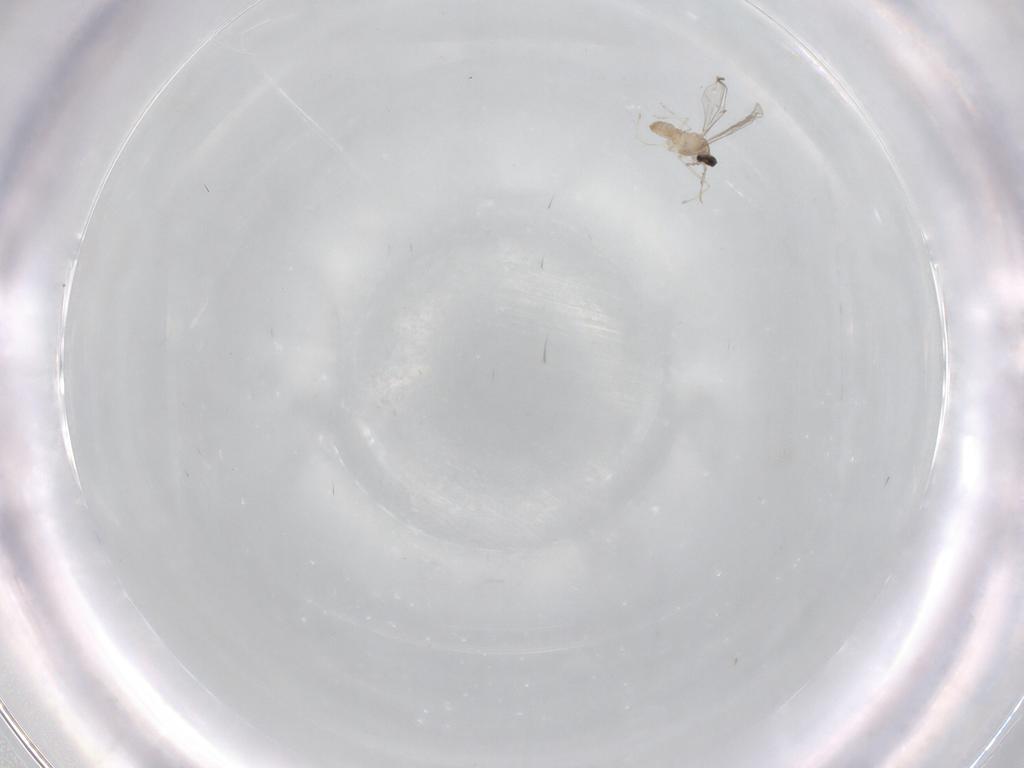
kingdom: Animalia
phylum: Arthropoda
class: Insecta
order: Diptera
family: Phoridae
